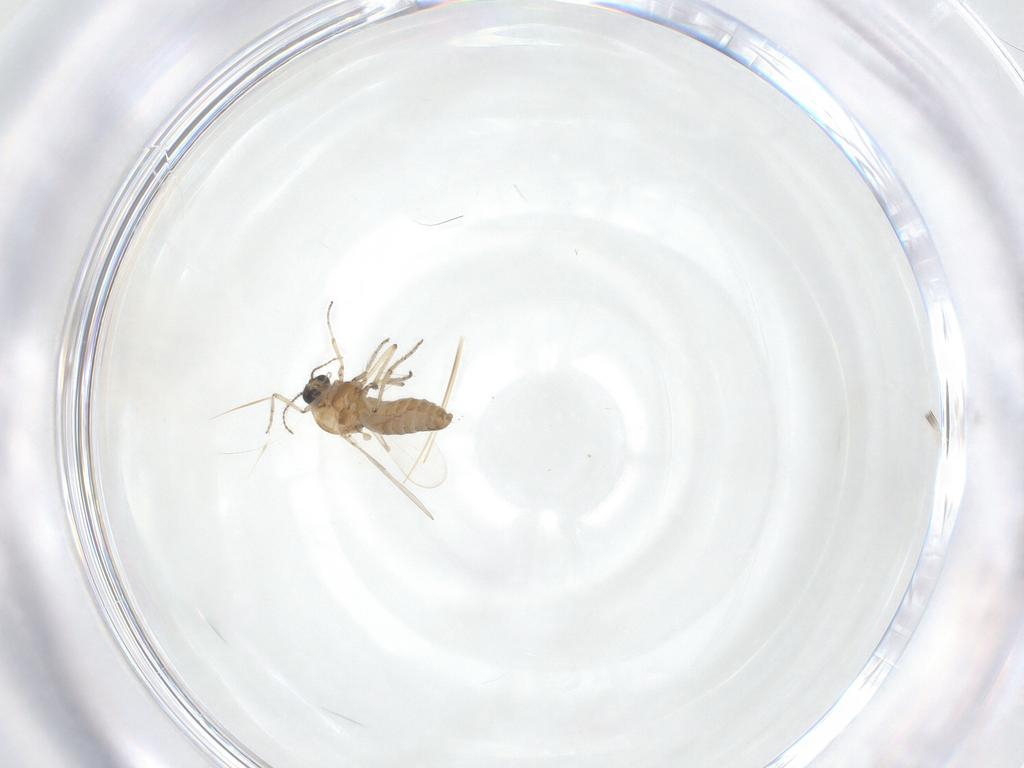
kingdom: Animalia
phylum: Arthropoda
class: Insecta
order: Diptera
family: Ceratopogonidae
